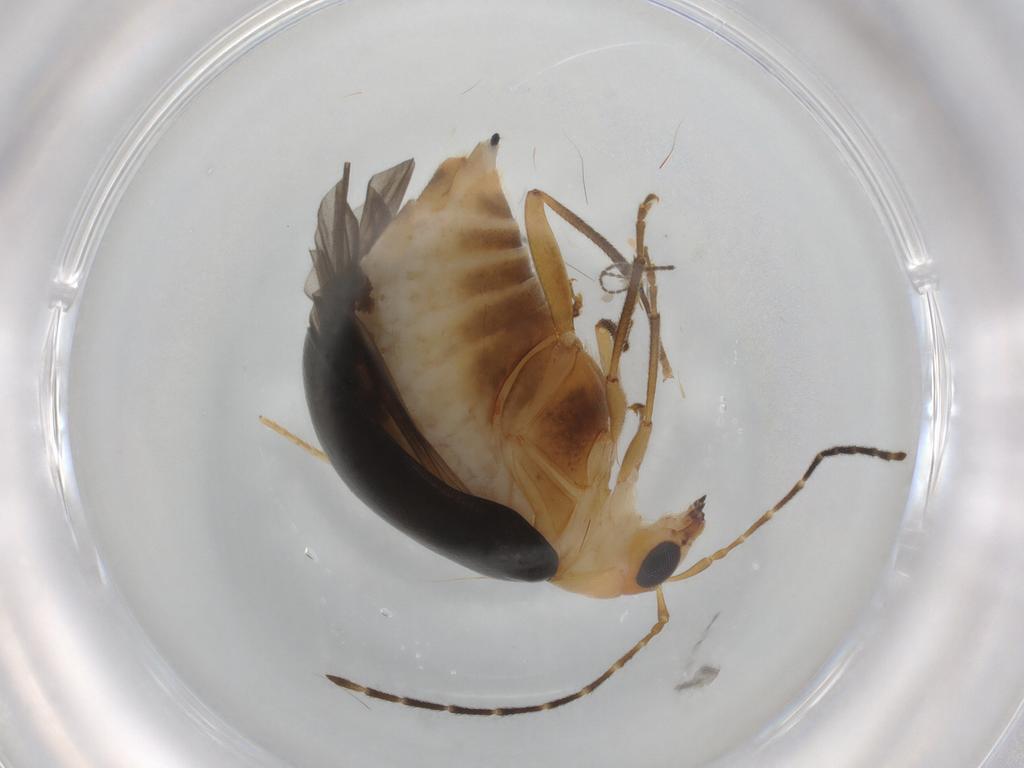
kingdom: Animalia
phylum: Arthropoda
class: Insecta
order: Coleoptera
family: Chrysomelidae
